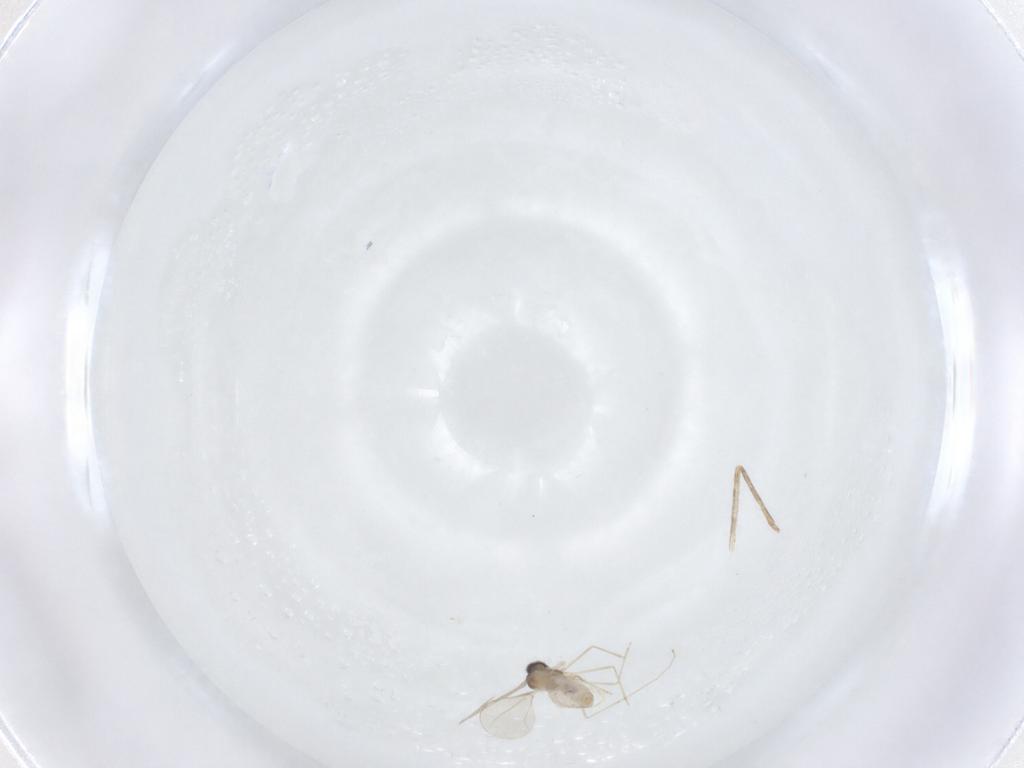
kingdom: Animalia
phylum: Arthropoda
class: Insecta
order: Diptera
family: Cecidomyiidae
